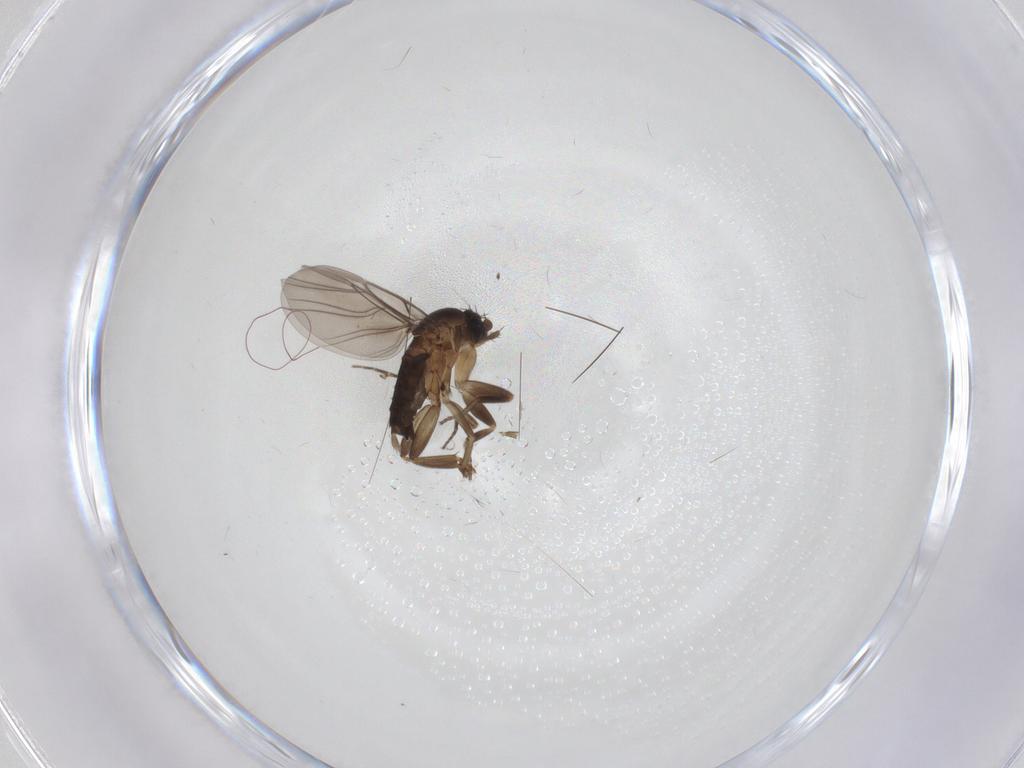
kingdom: Animalia
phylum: Arthropoda
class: Insecta
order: Diptera
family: Phoridae
